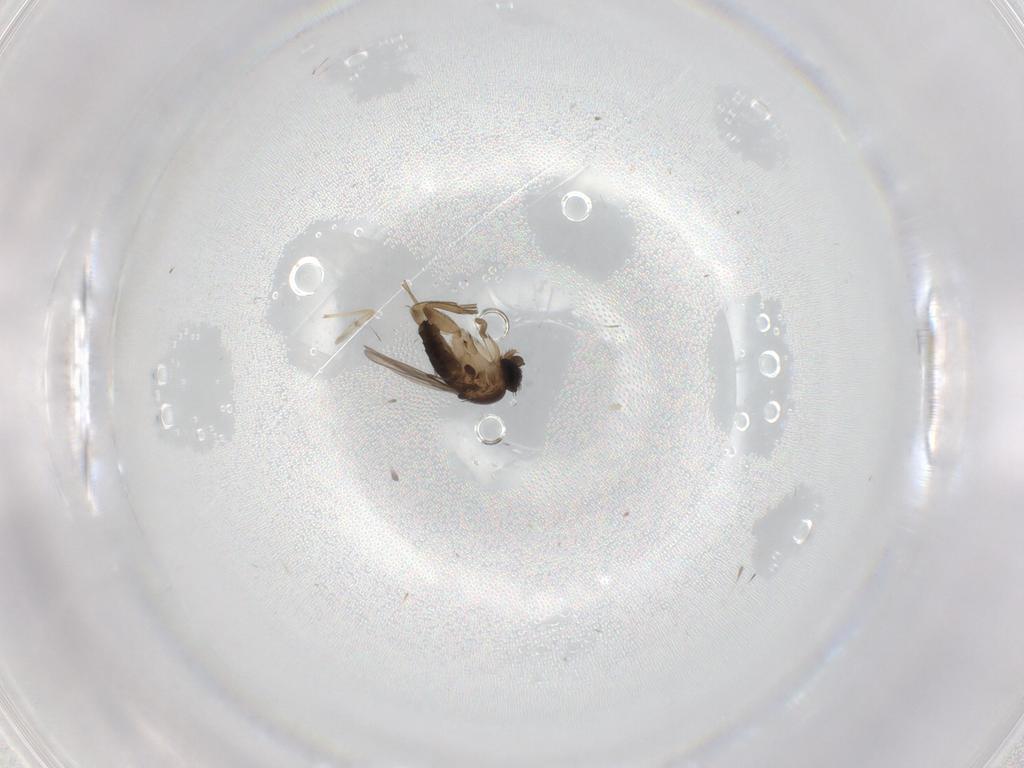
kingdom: Animalia
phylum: Arthropoda
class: Insecta
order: Diptera
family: Phoridae
